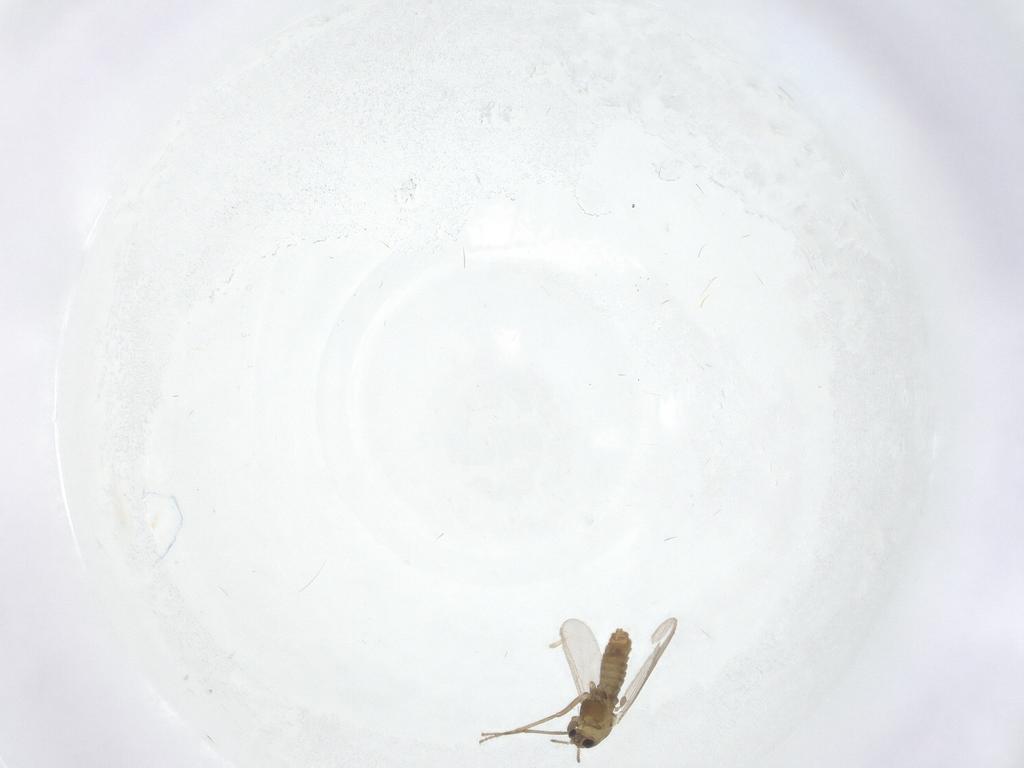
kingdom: Animalia
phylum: Arthropoda
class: Insecta
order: Diptera
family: Chironomidae
